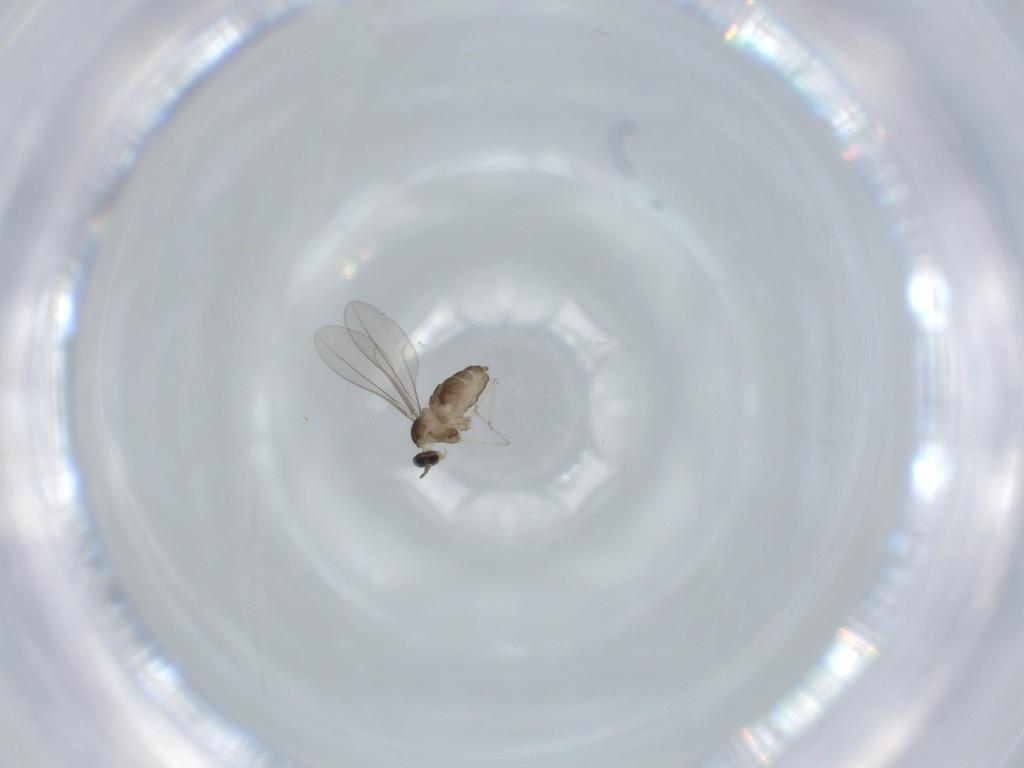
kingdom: Animalia
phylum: Arthropoda
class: Insecta
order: Diptera
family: Cecidomyiidae
